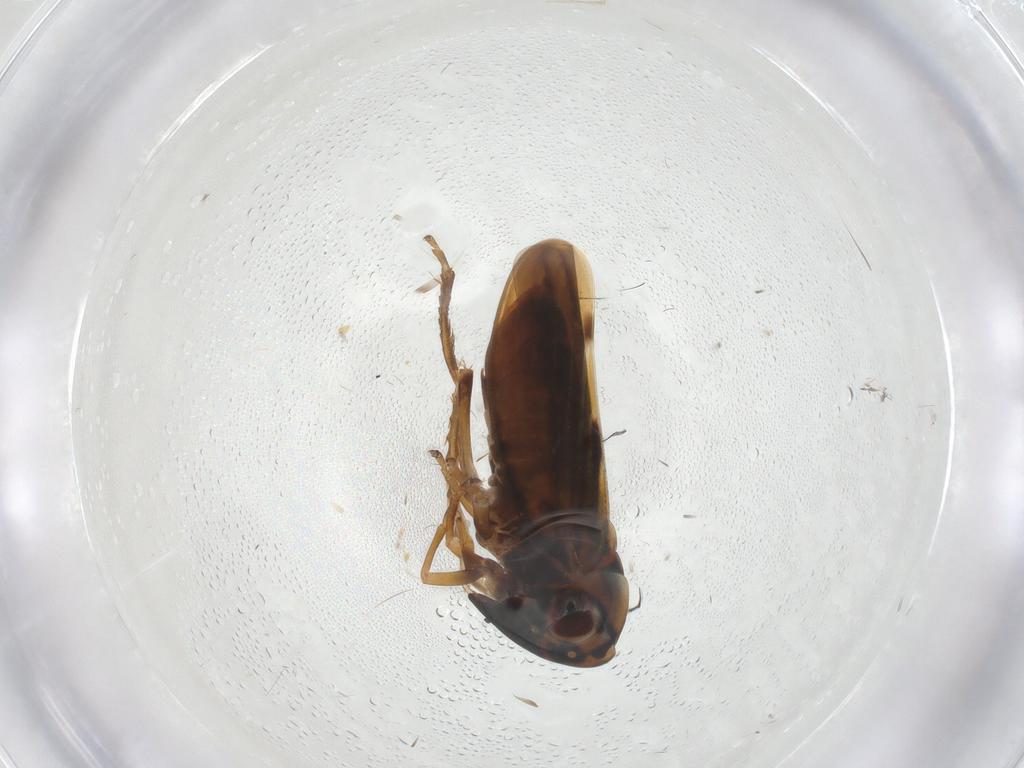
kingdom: Animalia
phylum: Arthropoda
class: Insecta
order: Hemiptera
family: Cicadellidae
